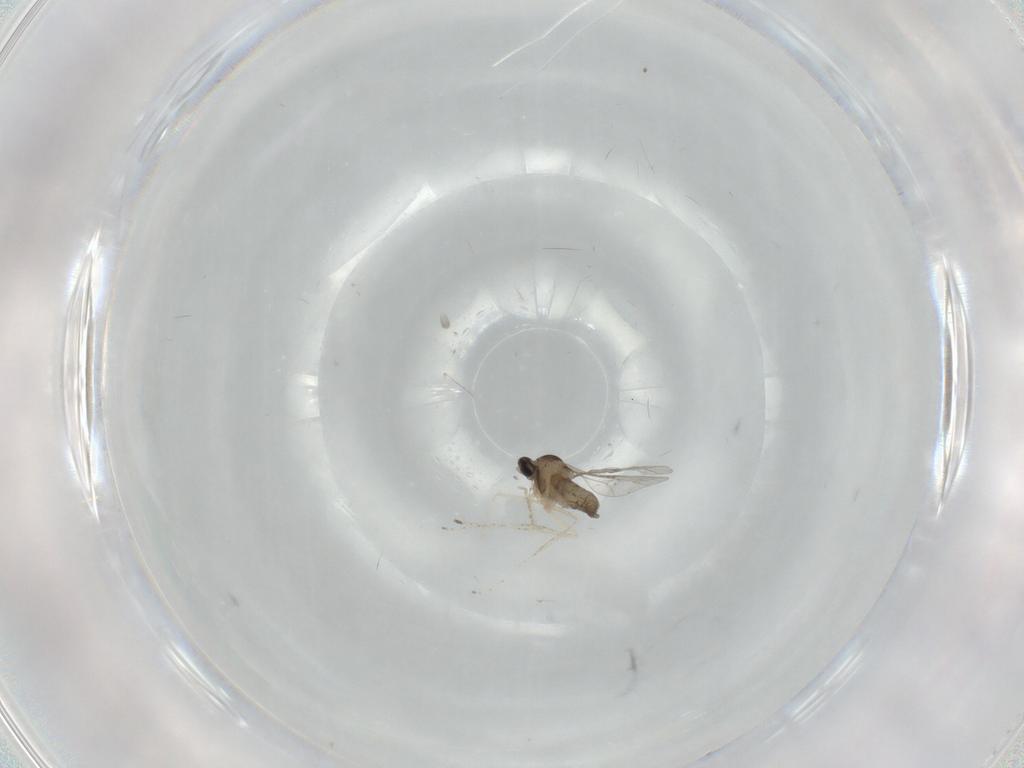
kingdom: Animalia
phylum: Arthropoda
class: Insecta
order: Diptera
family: Cecidomyiidae
